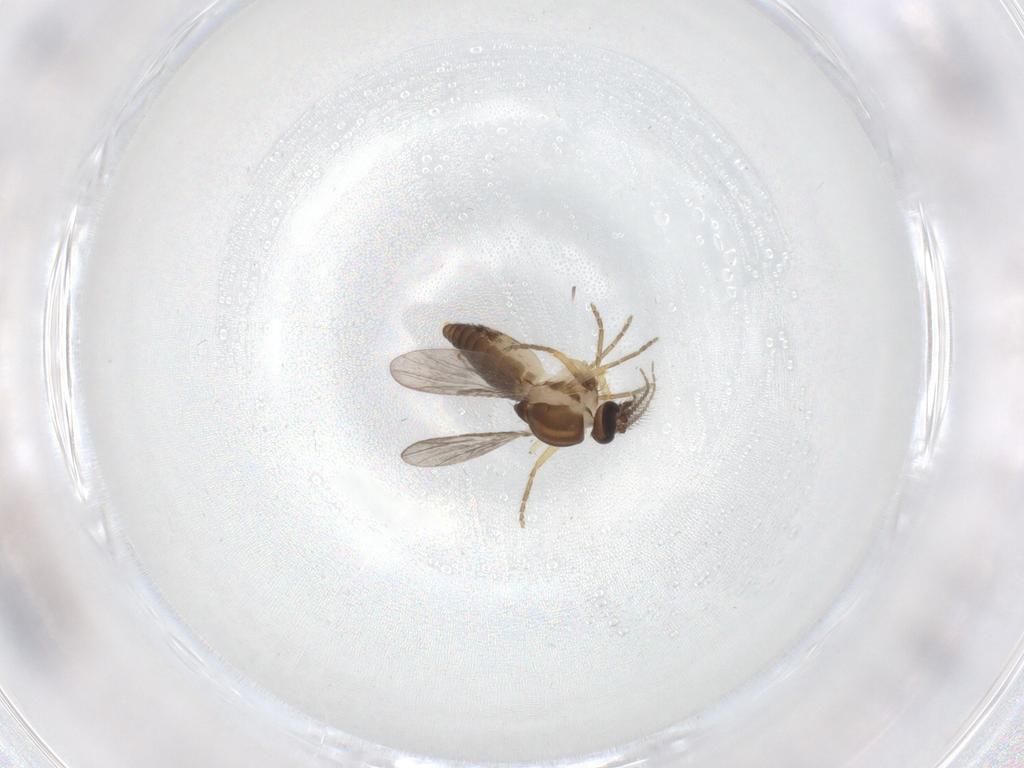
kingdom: Animalia
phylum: Arthropoda
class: Insecta
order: Diptera
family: Ceratopogonidae
